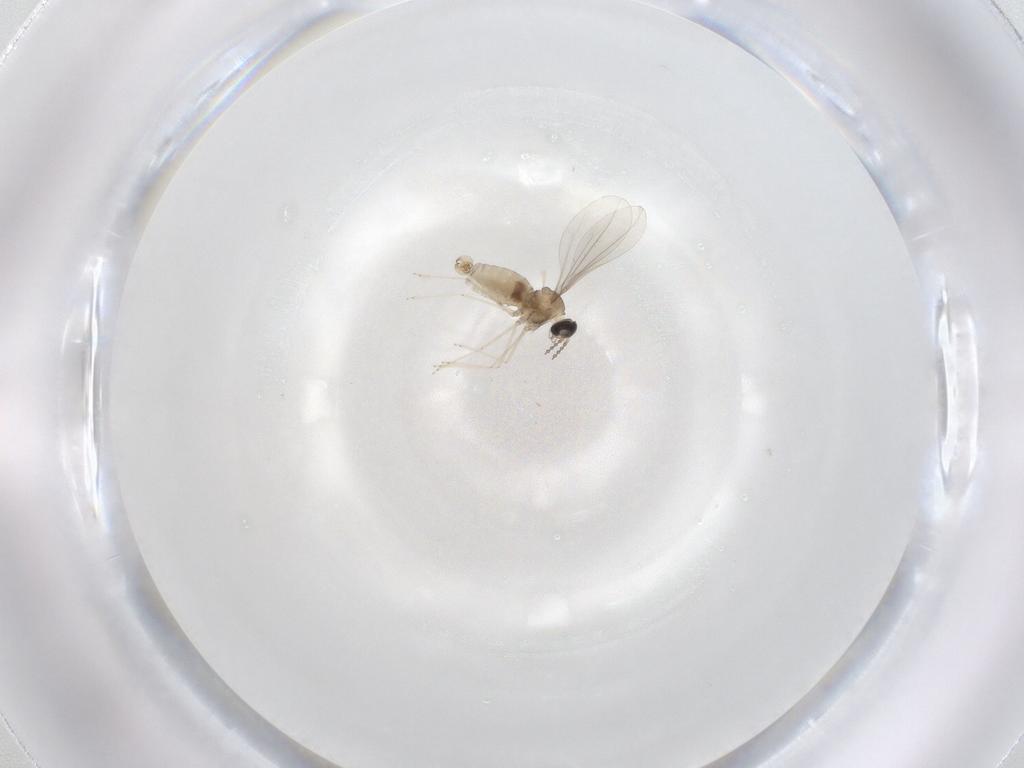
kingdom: Animalia
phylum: Arthropoda
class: Insecta
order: Diptera
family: Cecidomyiidae
